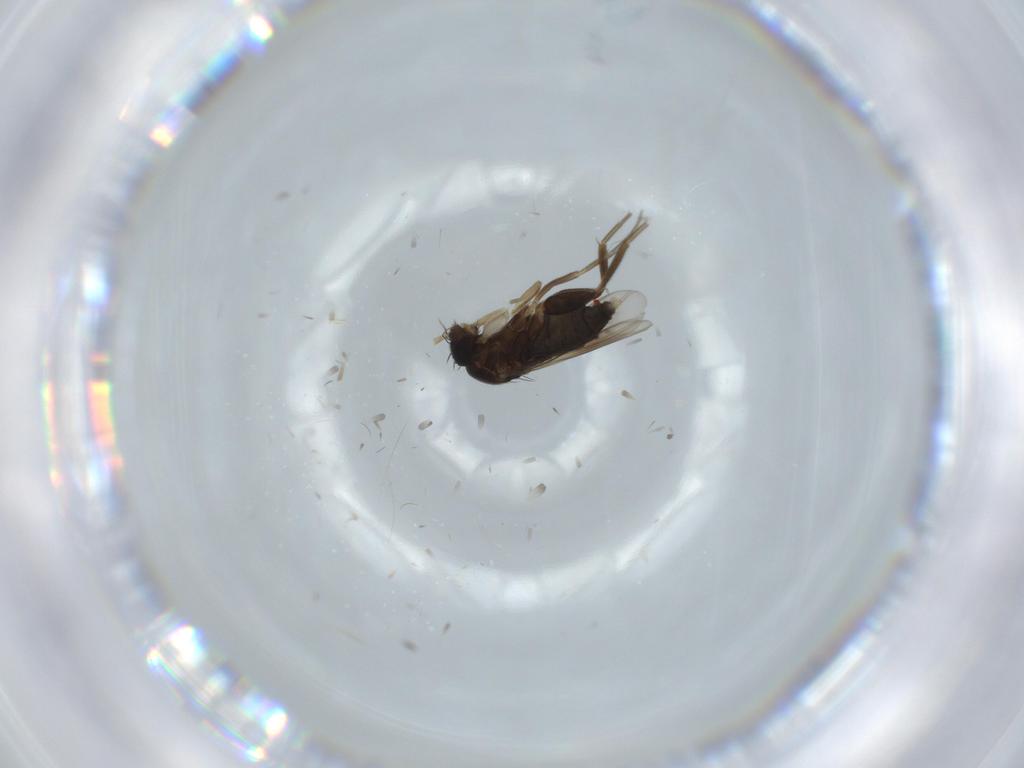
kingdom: Animalia
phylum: Arthropoda
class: Insecta
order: Diptera
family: Phoridae
